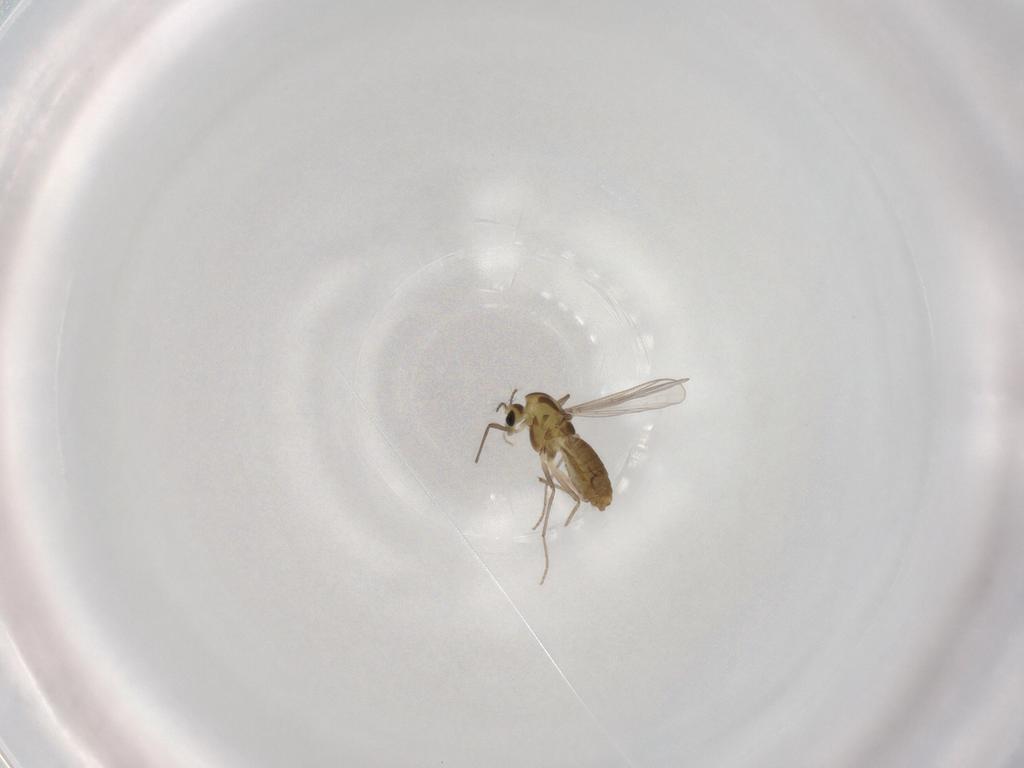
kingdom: Animalia
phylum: Arthropoda
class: Insecta
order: Diptera
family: Chironomidae
